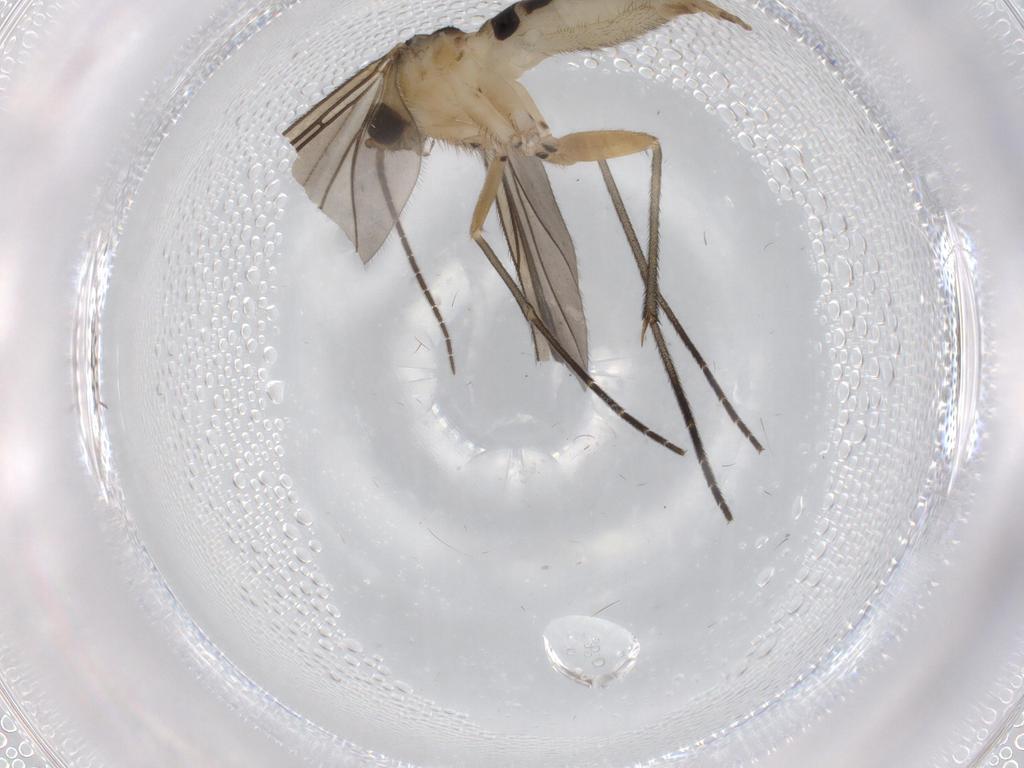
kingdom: Animalia
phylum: Arthropoda
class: Insecta
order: Diptera
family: Sciaridae
